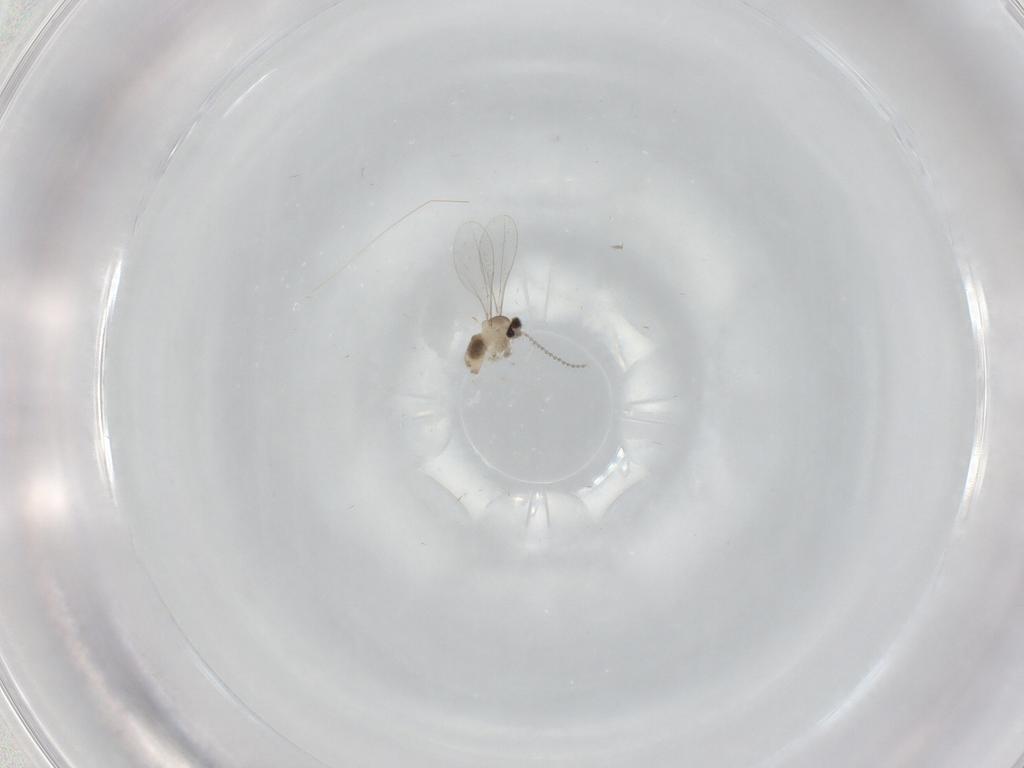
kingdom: Animalia
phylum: Arthropoda
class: Insecta
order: Diptera
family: Cecidomyiidae
